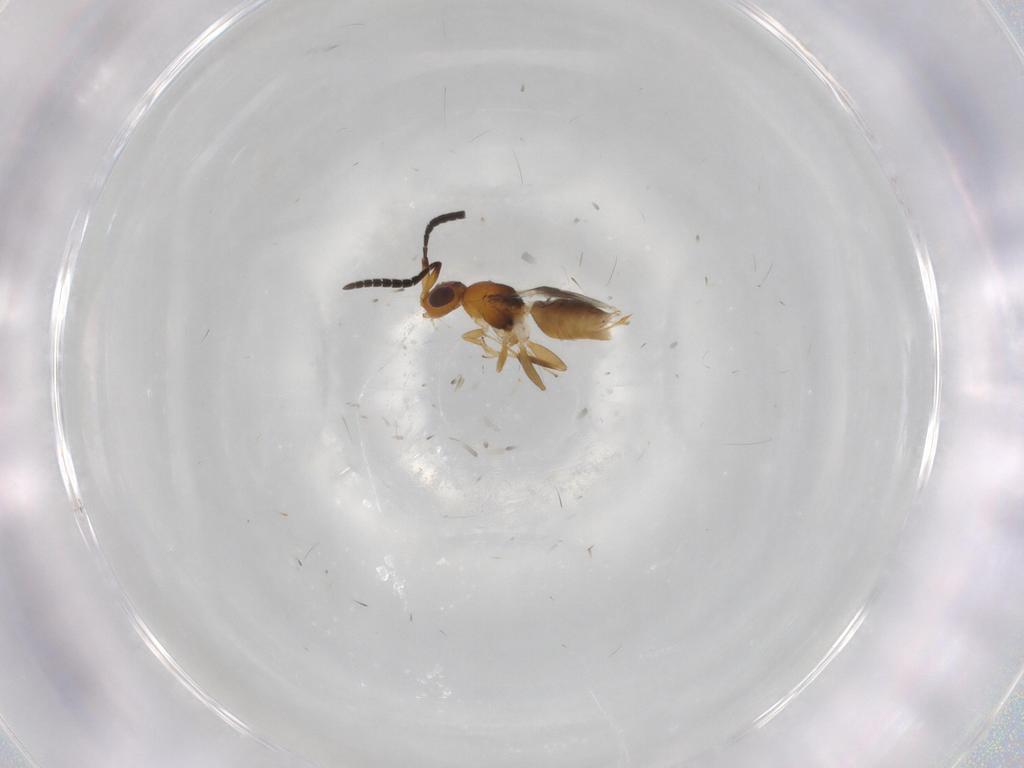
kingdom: Animalia
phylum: Arthropoda
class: Insecta
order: Hymenoptera
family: Megaspilidae
